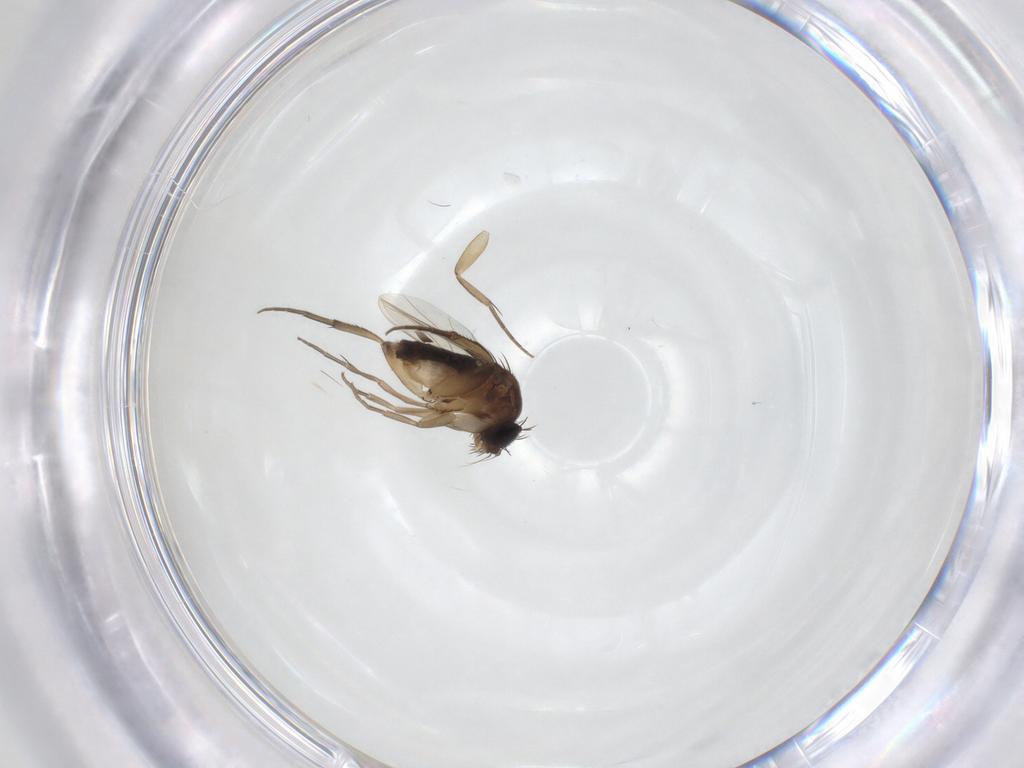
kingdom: Animalia
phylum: Arthropoda
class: Insecta
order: Diptera
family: Phoridae
